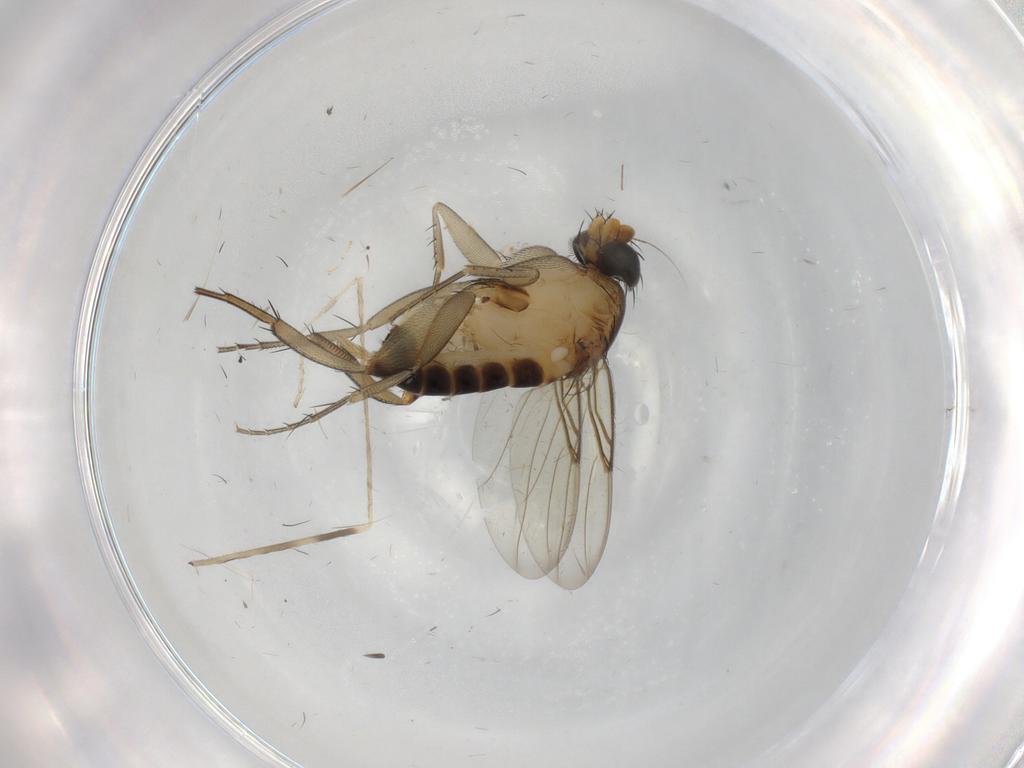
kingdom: Animalia
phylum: Arthropoda
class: Insecta
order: Diptera
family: Phoridae
